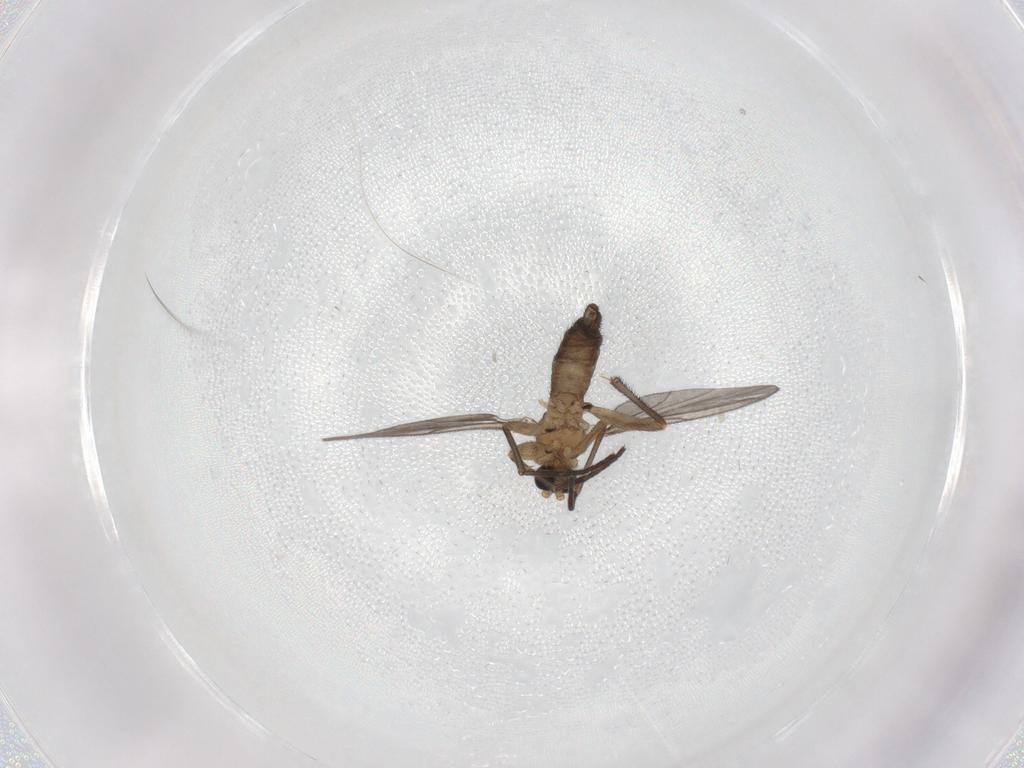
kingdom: Animalia
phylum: Arthropoda
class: Insecta
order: Diptera
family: Sciaridae
